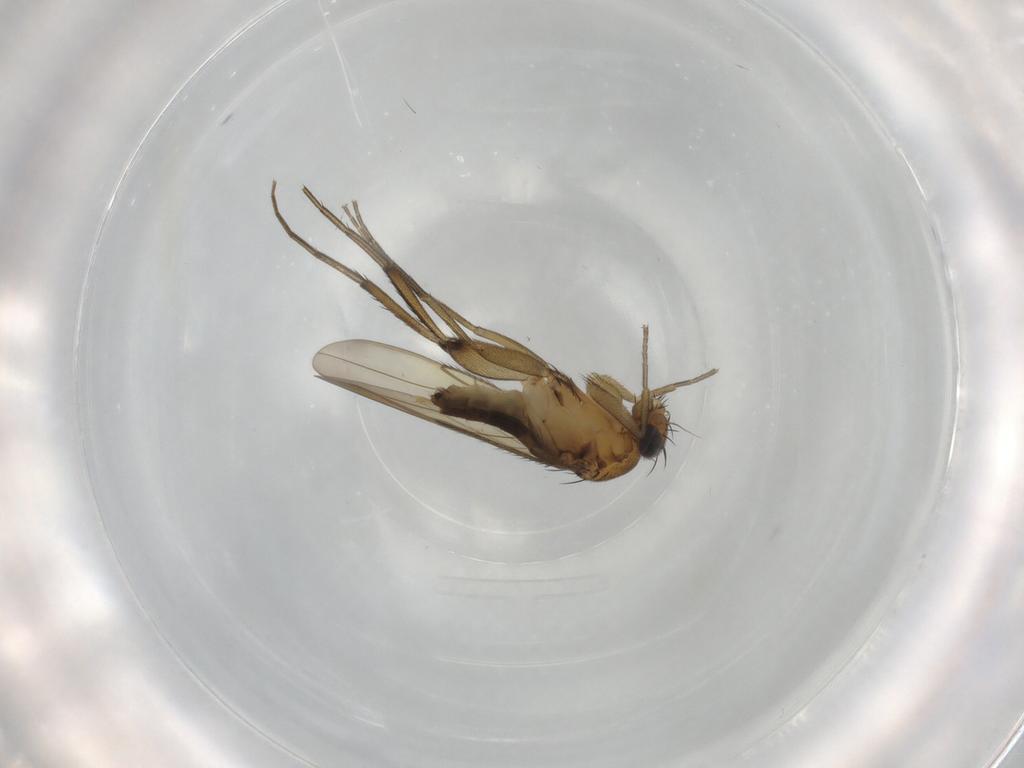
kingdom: Animalia
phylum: Arthropoda
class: Insecta
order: Diptera
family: Phoridae
